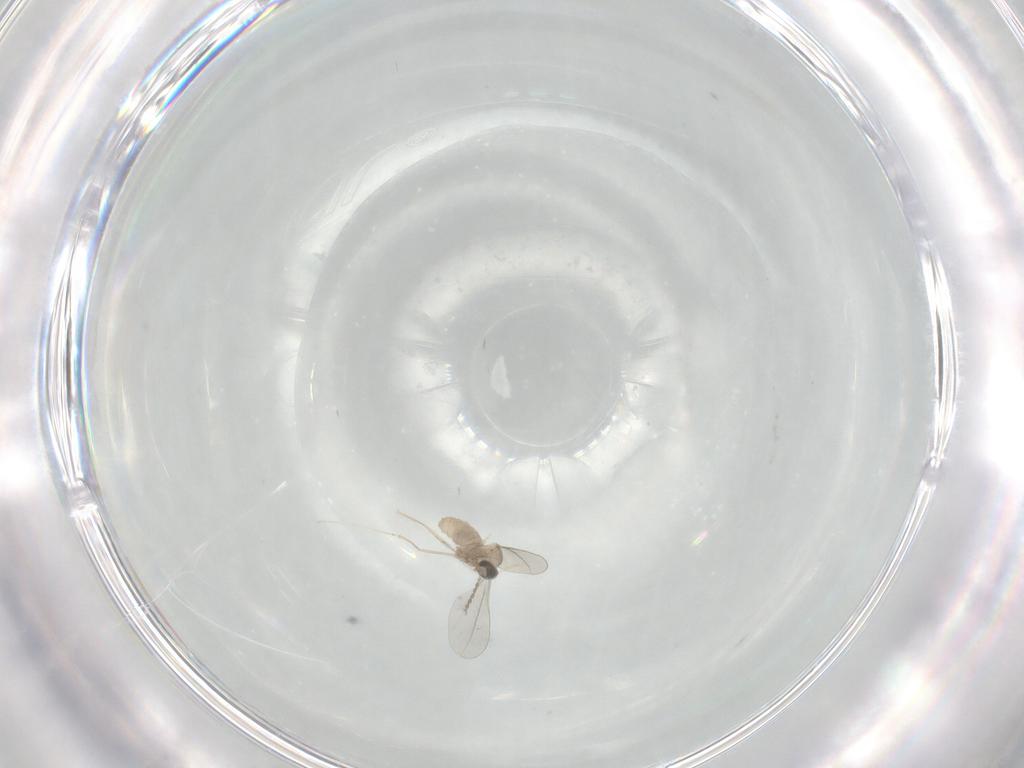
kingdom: Animalia
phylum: Arthropoda
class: Insecta
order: Diptera
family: Cecidomyiidae
